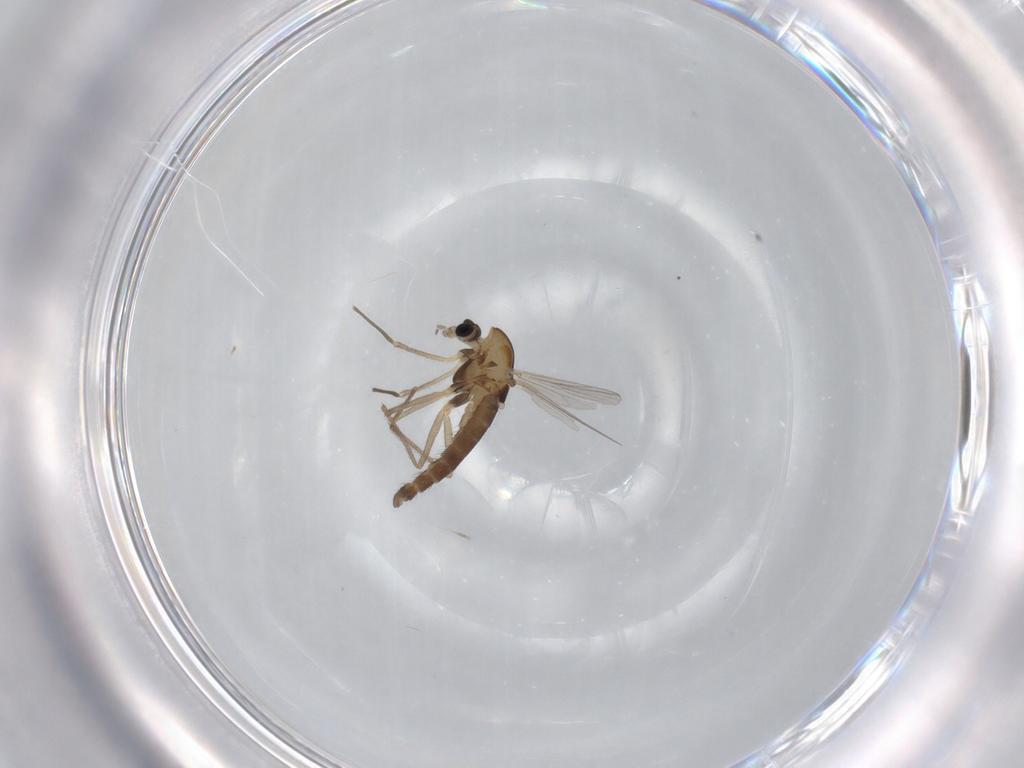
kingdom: Animalia
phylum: Arthropoda
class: Insecta
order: Diptera
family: Chironomidae
